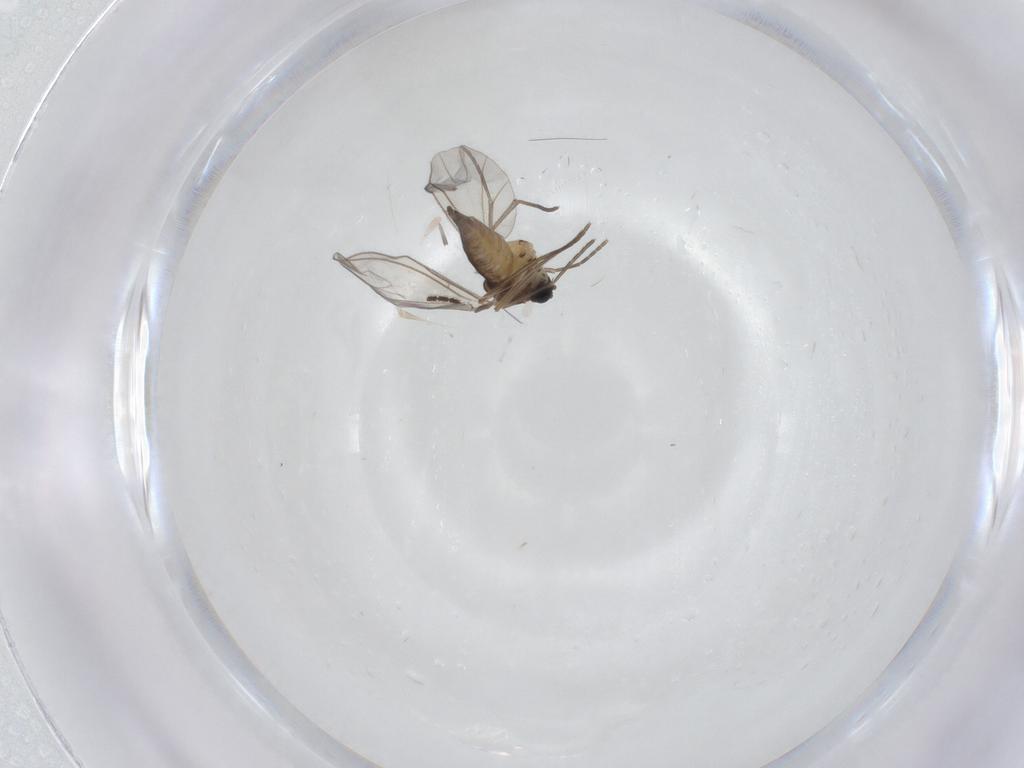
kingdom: Animalia
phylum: Arthropoda
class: Insecta
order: Diptera
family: Sciaridae
